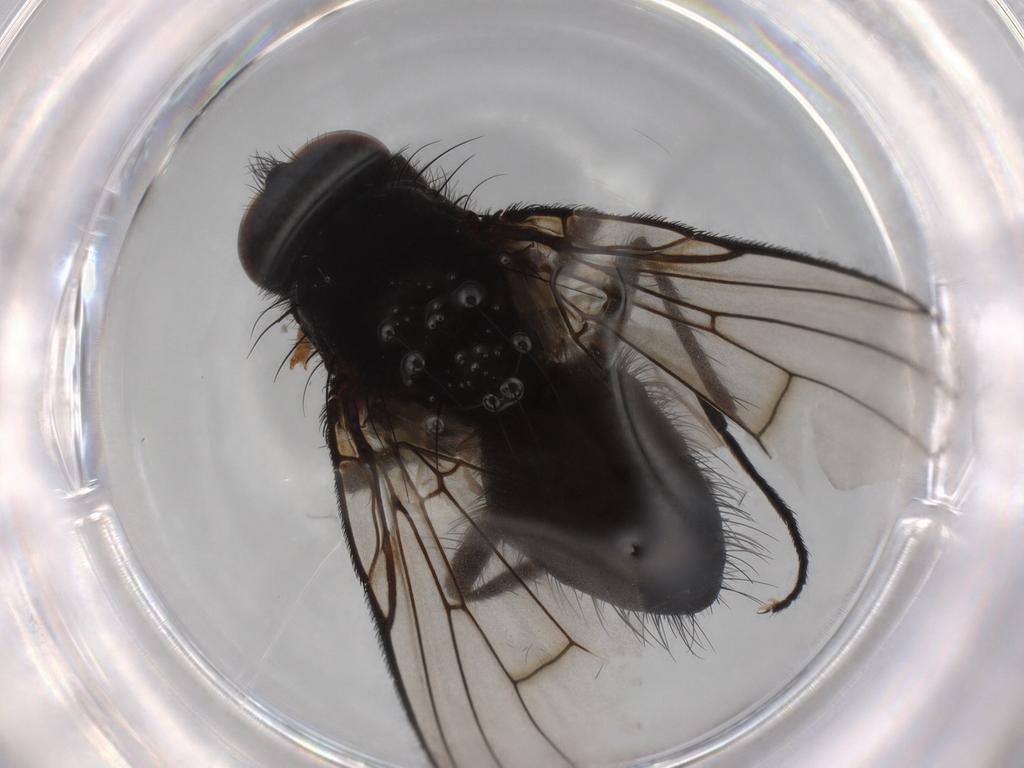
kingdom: Animalia
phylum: Arthropoda
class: Insecta
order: Diptera
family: Muscidae
